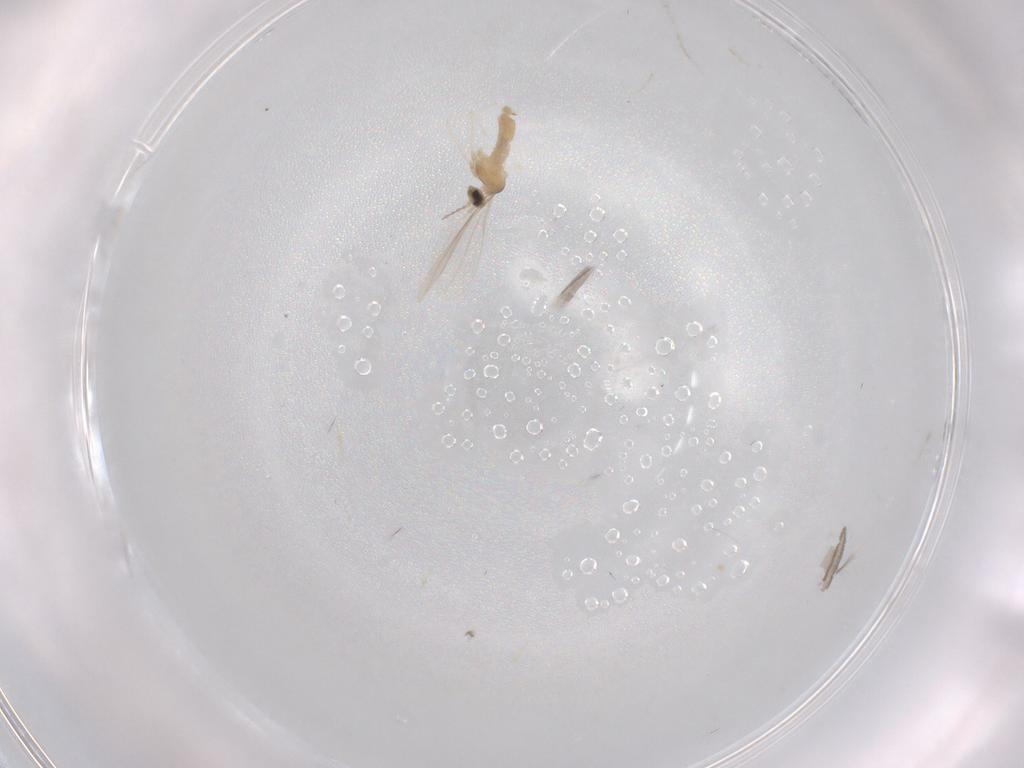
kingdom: Animalia
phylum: Arthropoda
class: Insecta
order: Diptera
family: Cecidomyiidae
